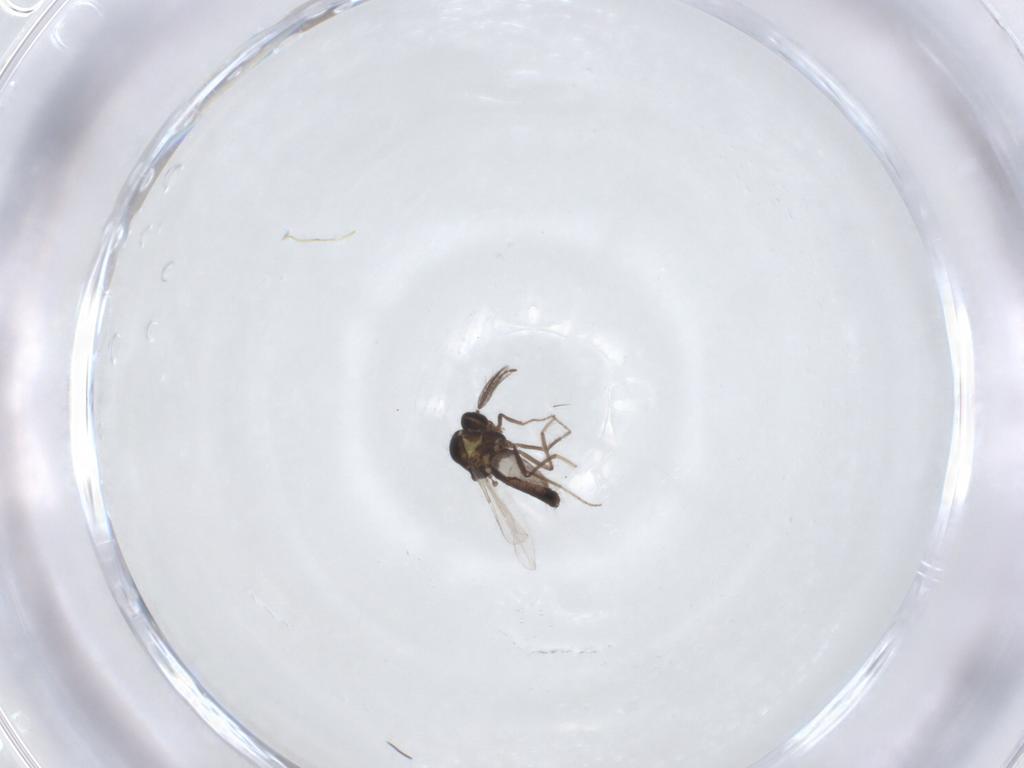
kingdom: Animalia
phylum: Arthropoda
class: Insecta
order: Diptera
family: Ceratopogonidae
